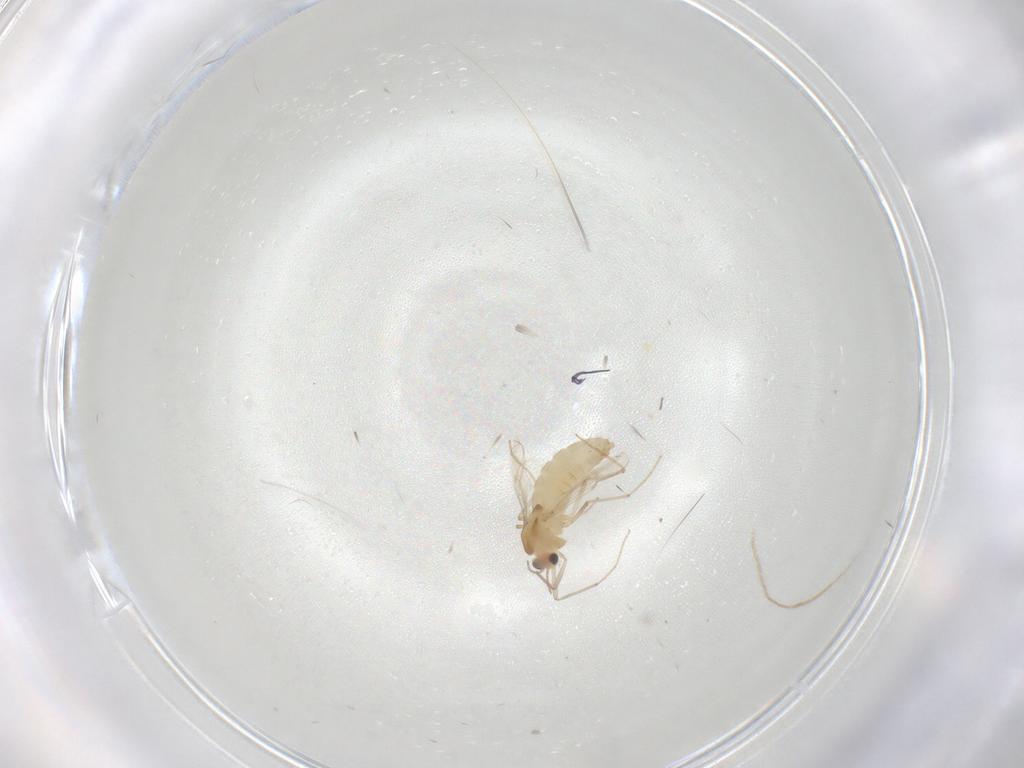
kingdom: Animalia
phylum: Arthropoda
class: Insecta
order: Diptera
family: Chironomidae
